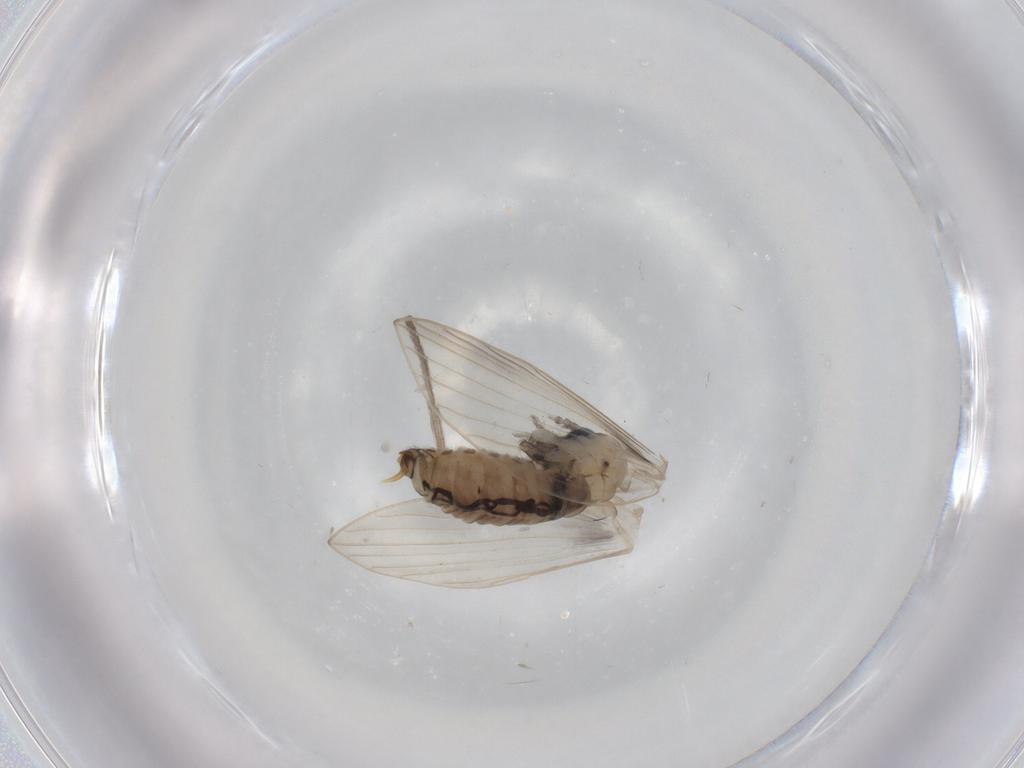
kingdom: Animalia
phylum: Arthropoda
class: Insecta
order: Diptera
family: Psychodidae
